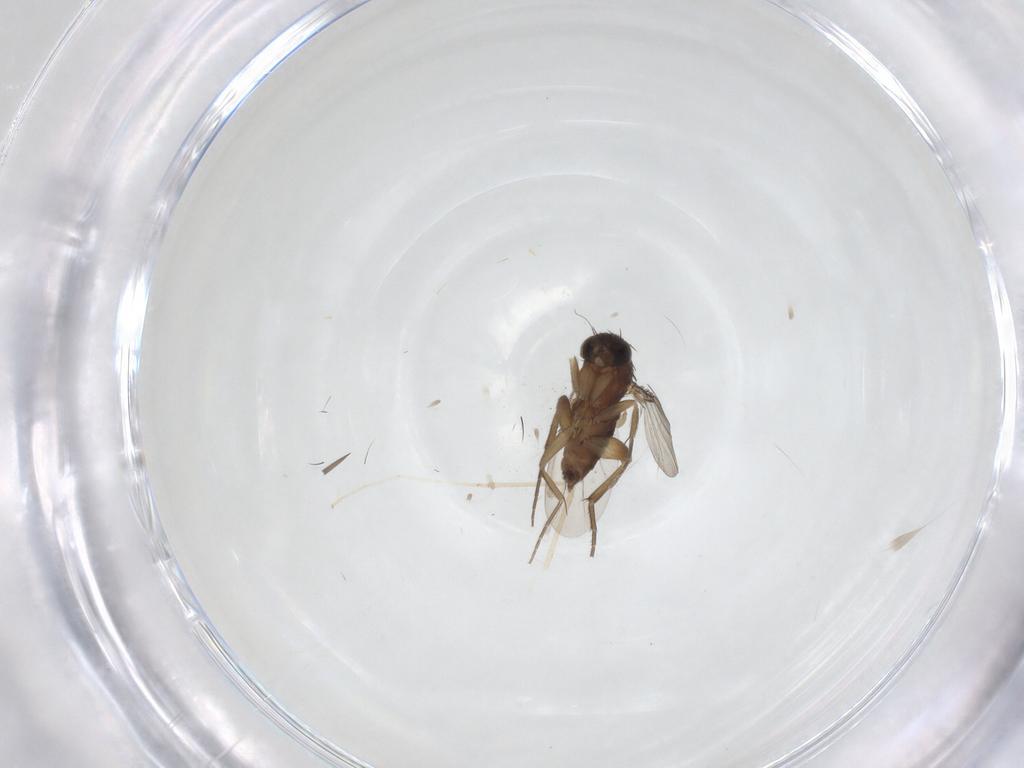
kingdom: Animalia
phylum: Arthropoda
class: Insecta
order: Diptera
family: Phoridae
